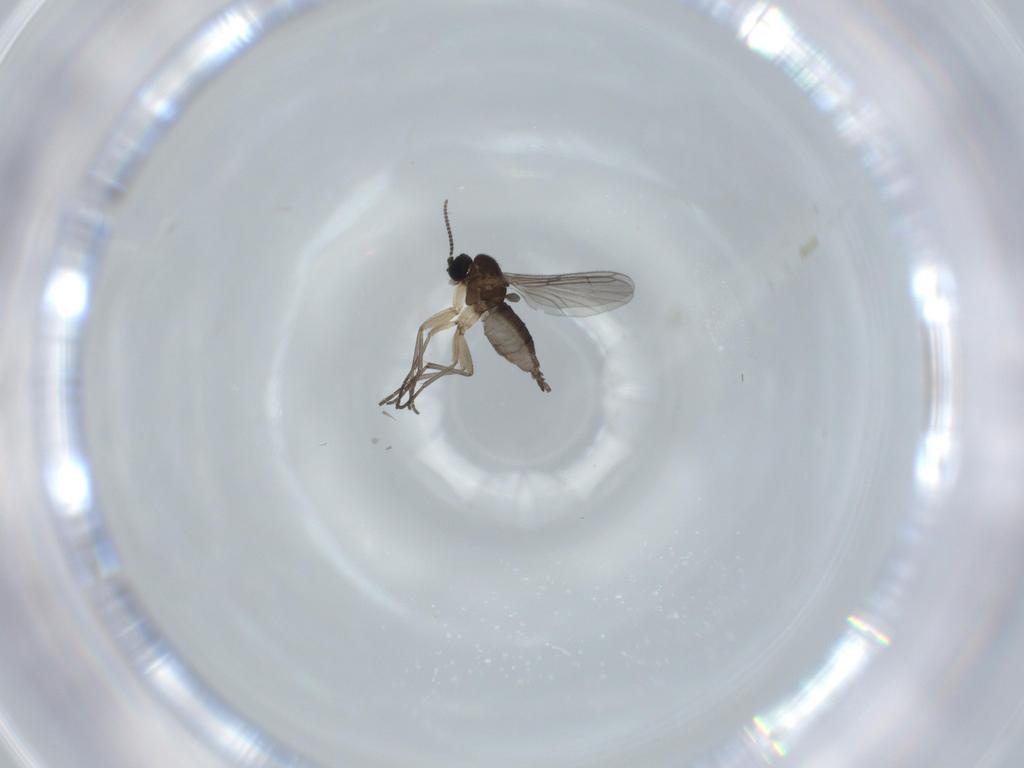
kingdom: Animalia
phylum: Arthropoda
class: Insecta
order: Diptera
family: Sciaridae
